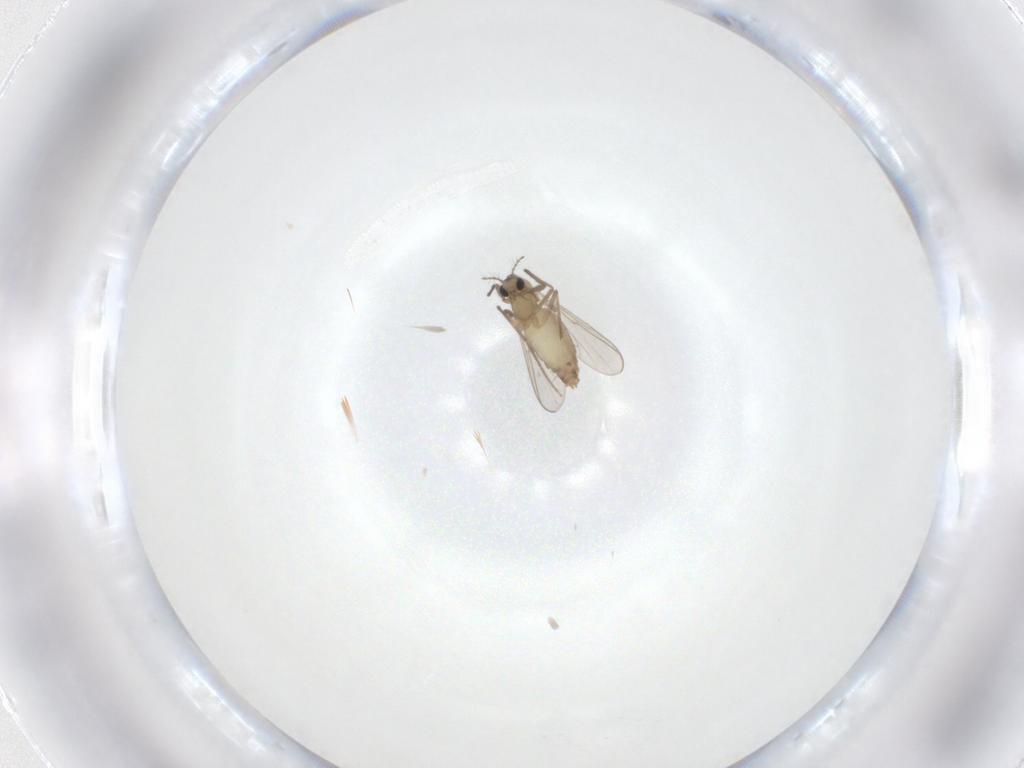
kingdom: Animalia
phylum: Arthropoda
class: Insecta
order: Diptera
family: Chironomidae
